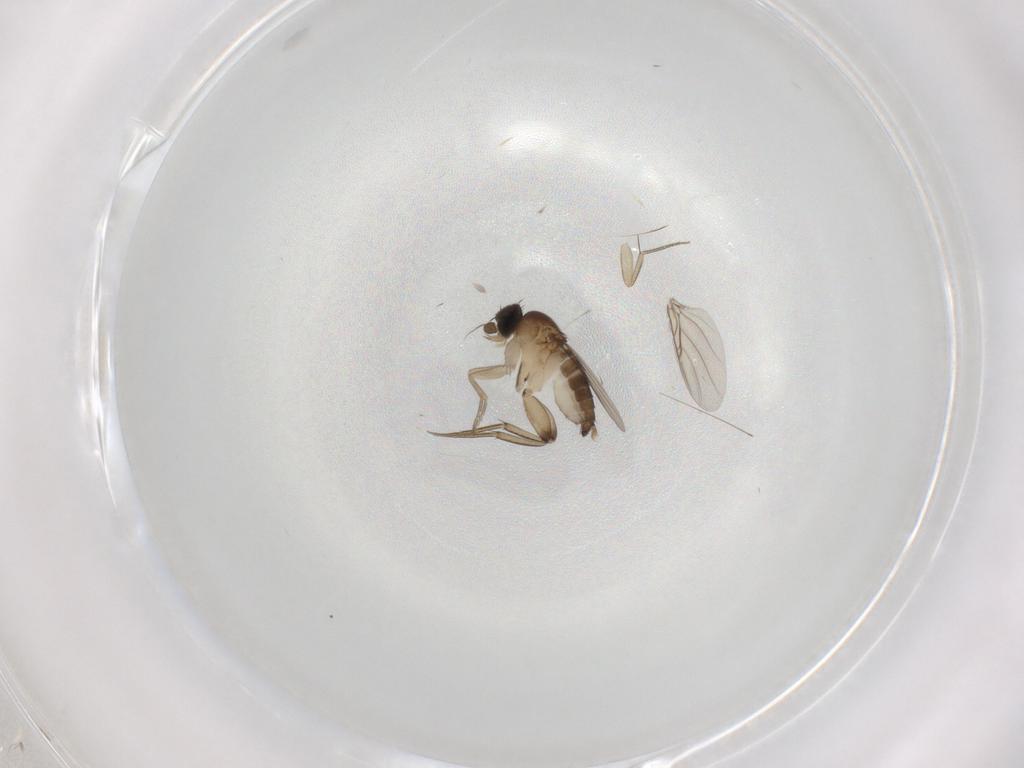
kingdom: Animalia
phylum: Arthropoda
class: Insecta
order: Diptera
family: Phoridae
